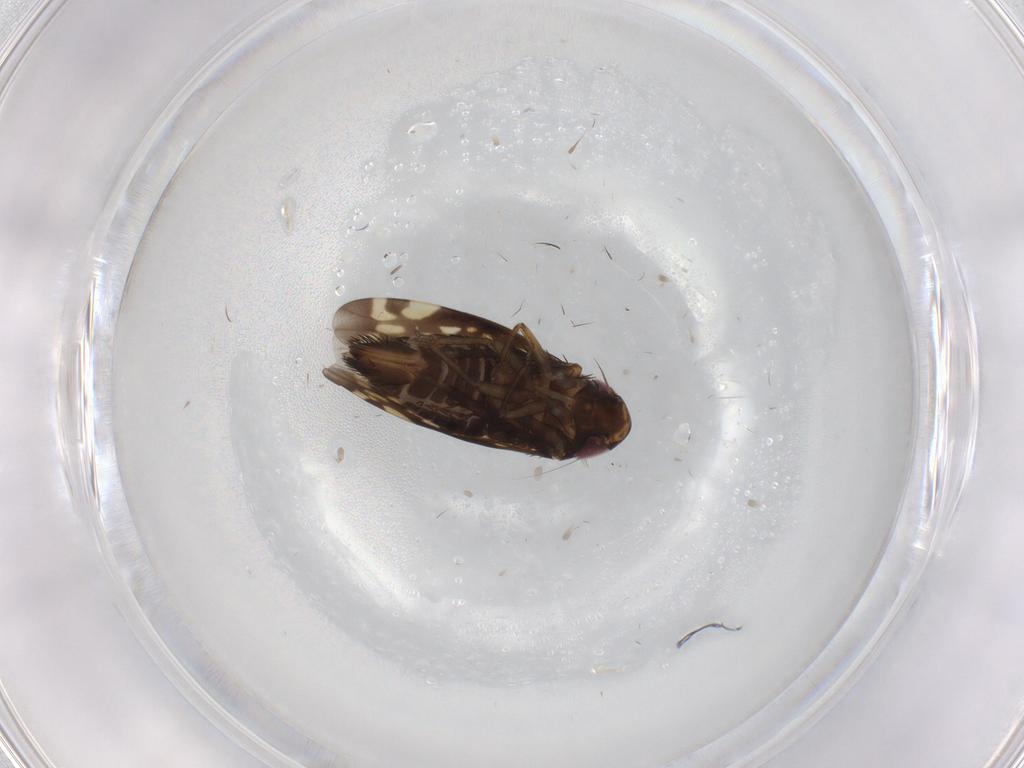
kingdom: Animalia
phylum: Arthropoda
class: Insecta
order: Hemiptera
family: Cicadellidae
